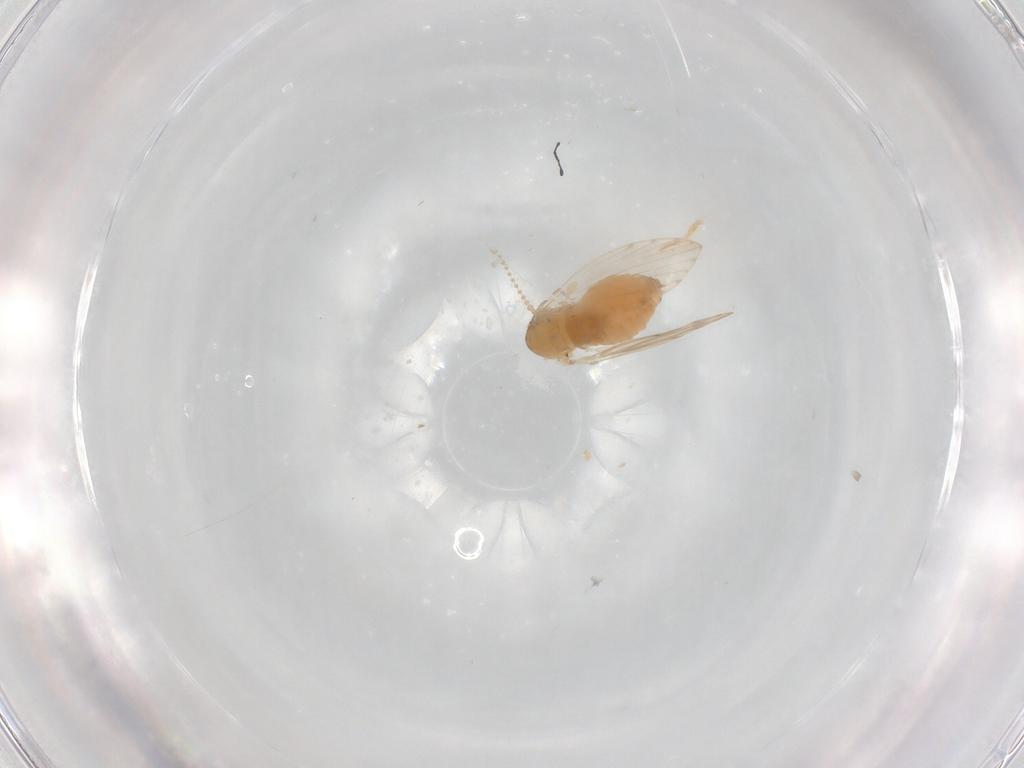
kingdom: Animalia
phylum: Arthropoda
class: Insecta
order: Diptera
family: Psychodidae
